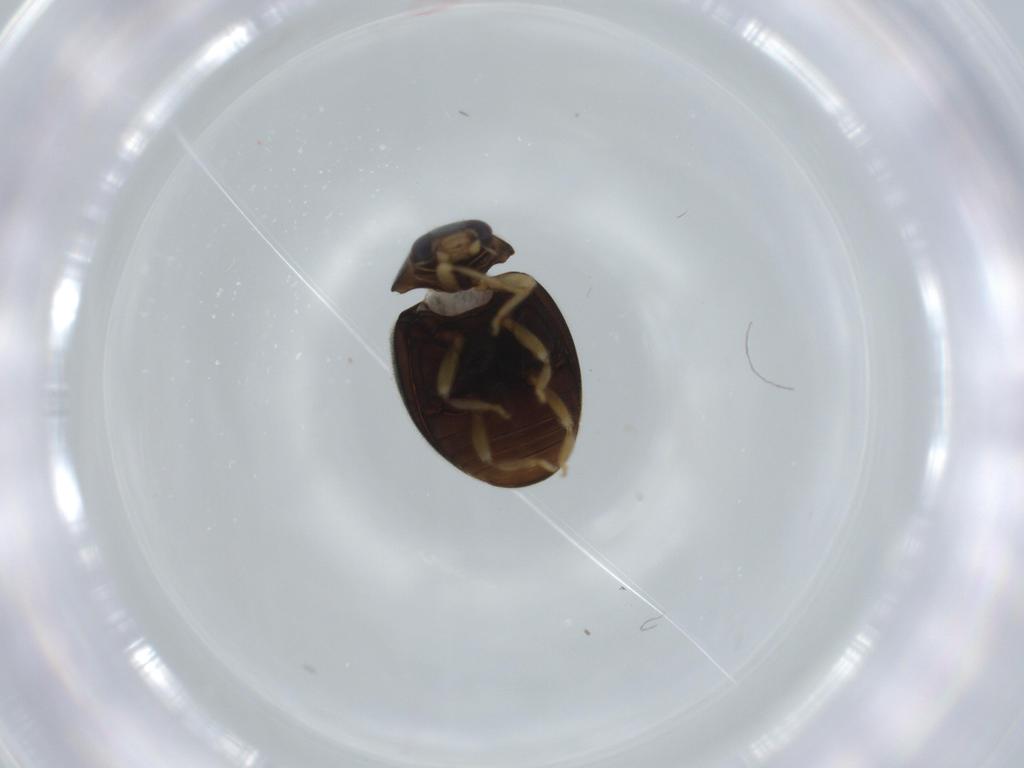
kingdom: Animalia
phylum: Arthropoda
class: Insecta
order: Coleoptera
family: Coccinellidae
